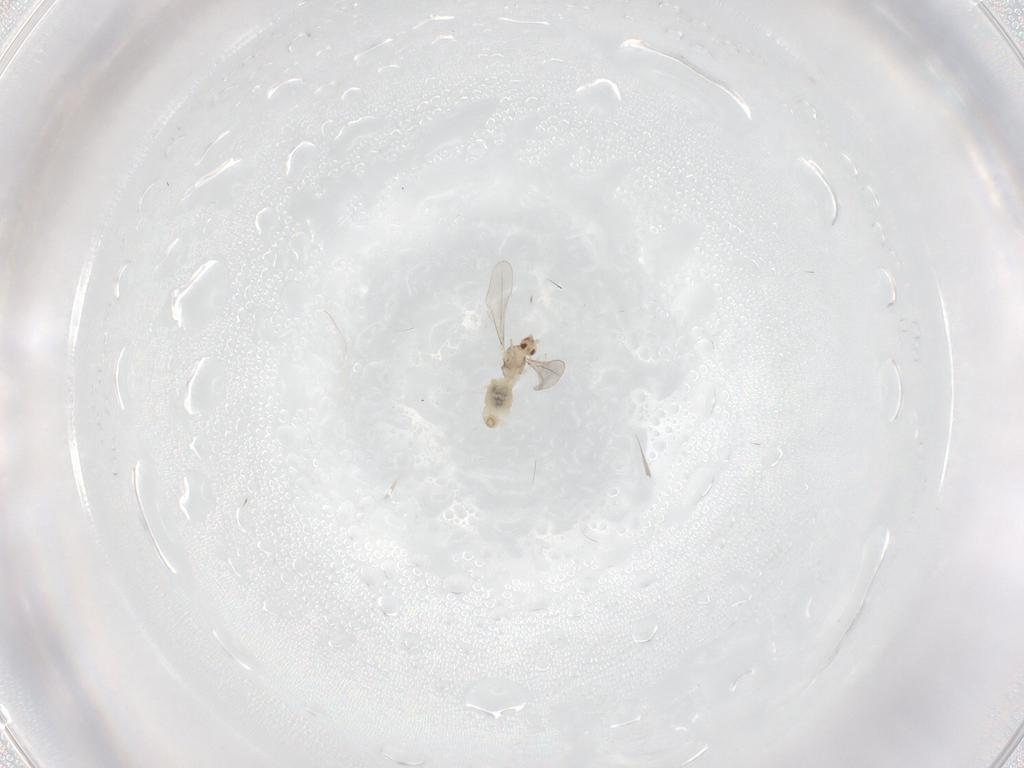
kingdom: Animalia
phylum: Arthropoda
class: Insecta
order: Diptera
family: Cecidomyiidae
